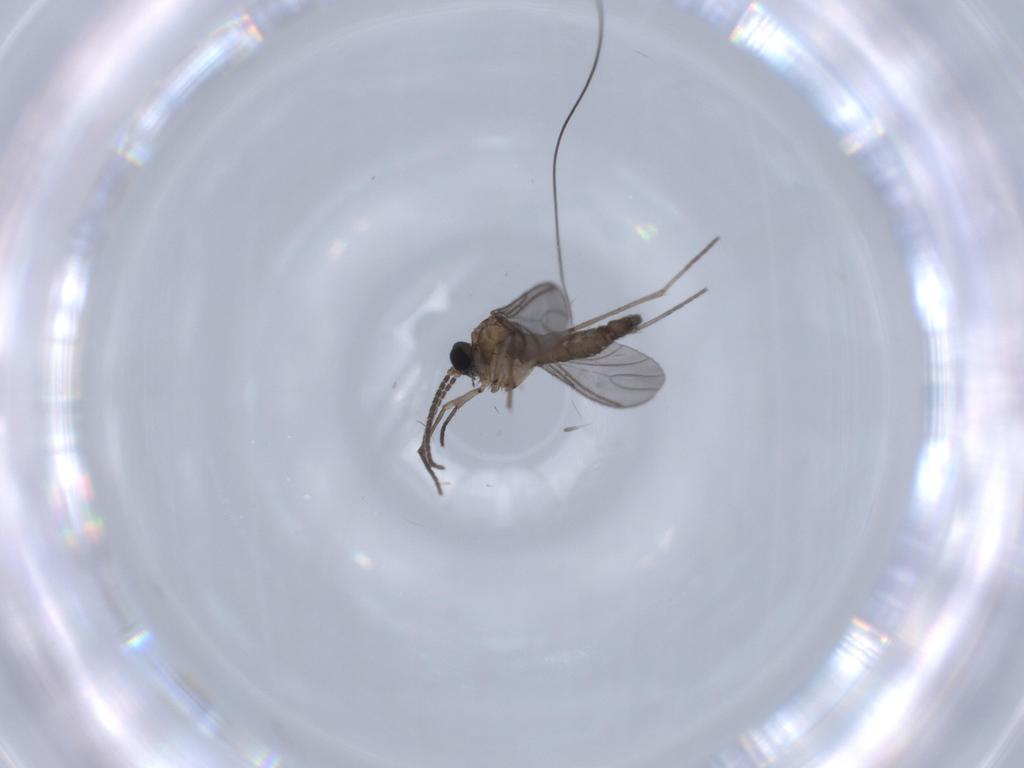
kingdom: Animalia
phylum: Arthropoda
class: Insecta
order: Diptera
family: Sciaridae
